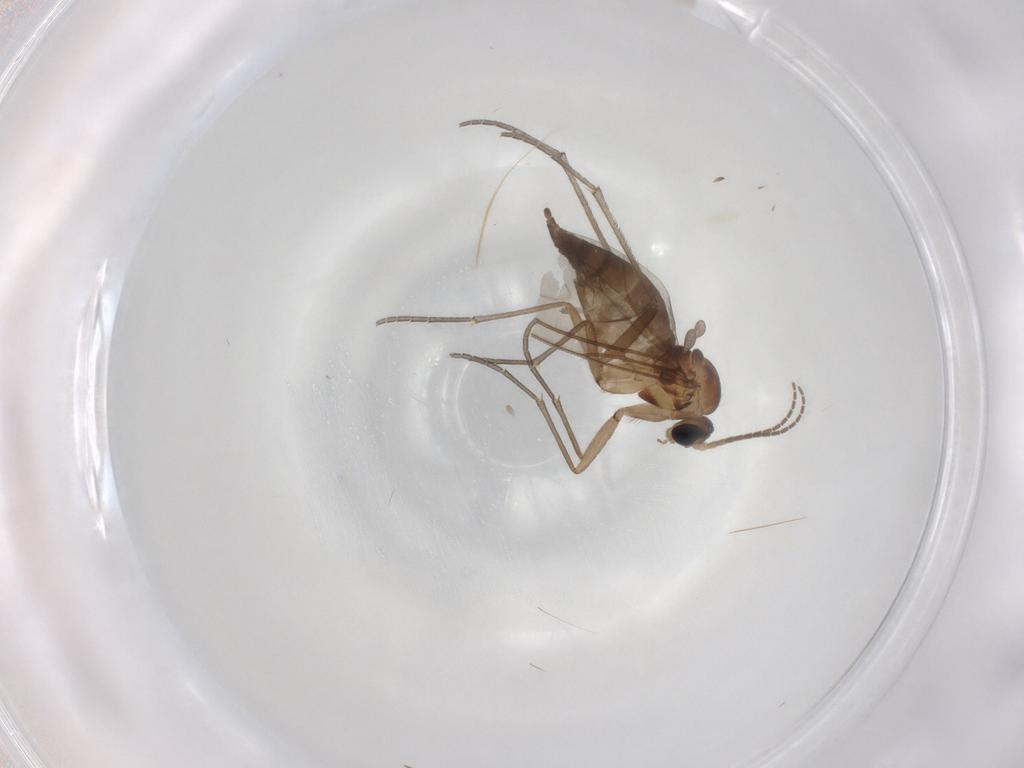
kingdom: Animalia
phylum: Arthropoda
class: Insecta
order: Diptera
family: Sciaridae
